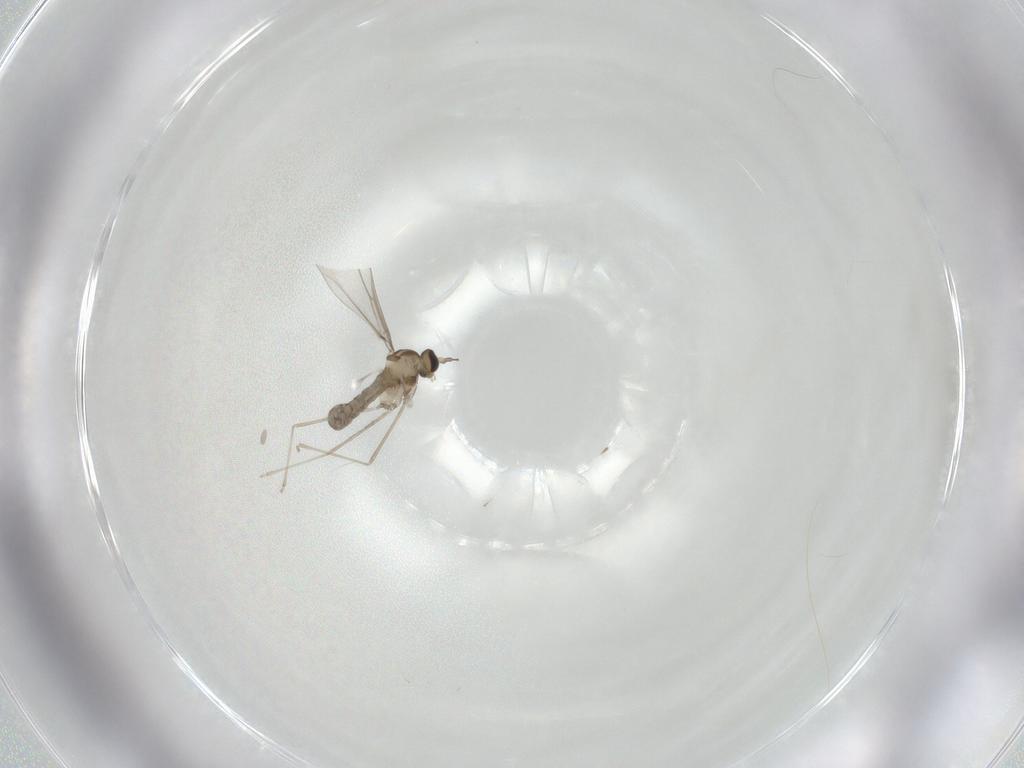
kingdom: Animalia
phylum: Arthropoda
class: Insecta
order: Diptera
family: Cecidomyiidae
